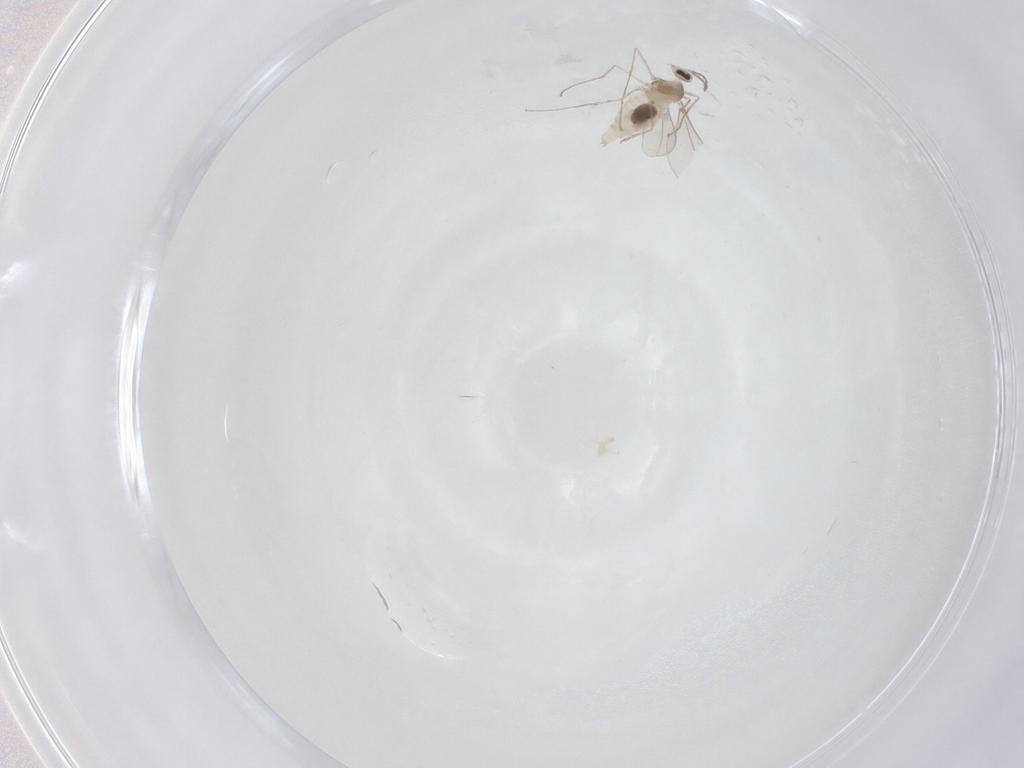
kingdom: Animalia
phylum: Arthropoda
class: Insecta
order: Diptera
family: Cecidomyiidae
